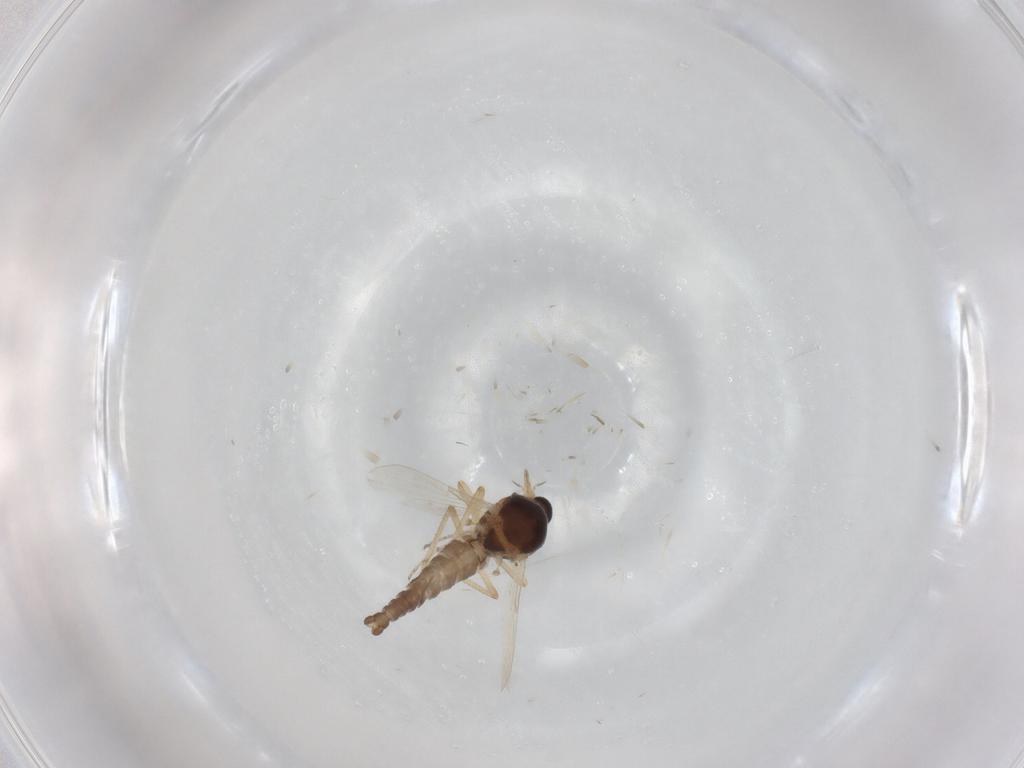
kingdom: Animalia
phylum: Arthropoda
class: Insecta
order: Diptera
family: Ceratopogonidae
